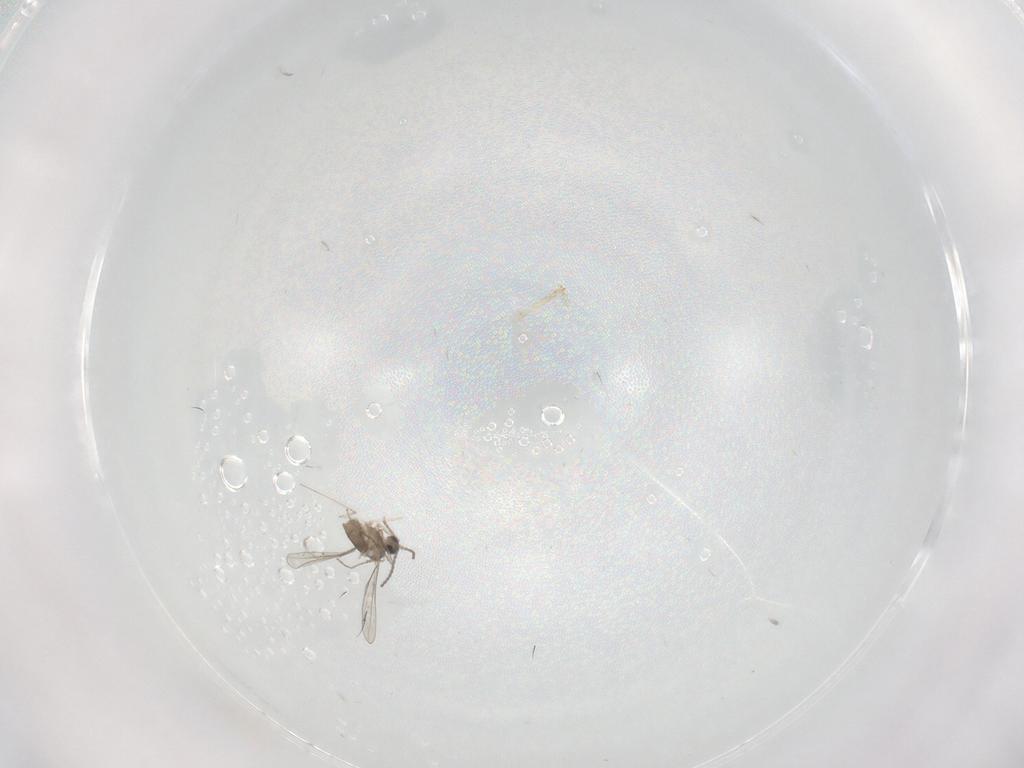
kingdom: Animalia
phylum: Arthropoda
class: Insecta
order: Diptera
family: Cecidomyiidae
